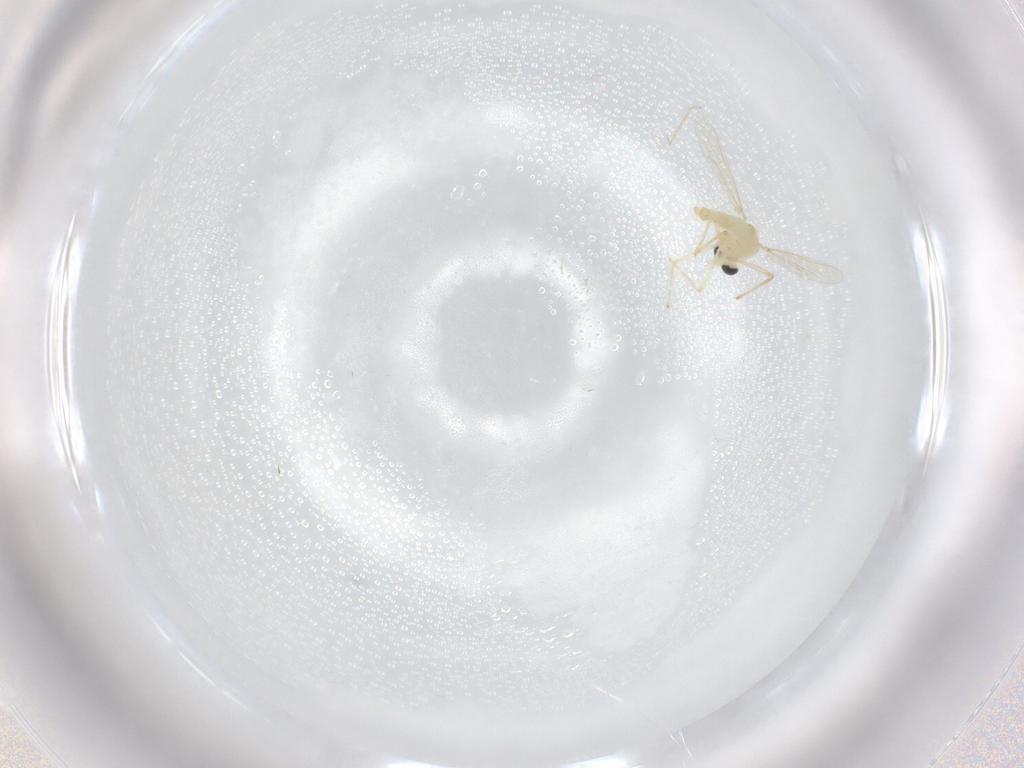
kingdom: Animalia
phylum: Arthropoda
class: Insecta
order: Diptera
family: Chironomidae
